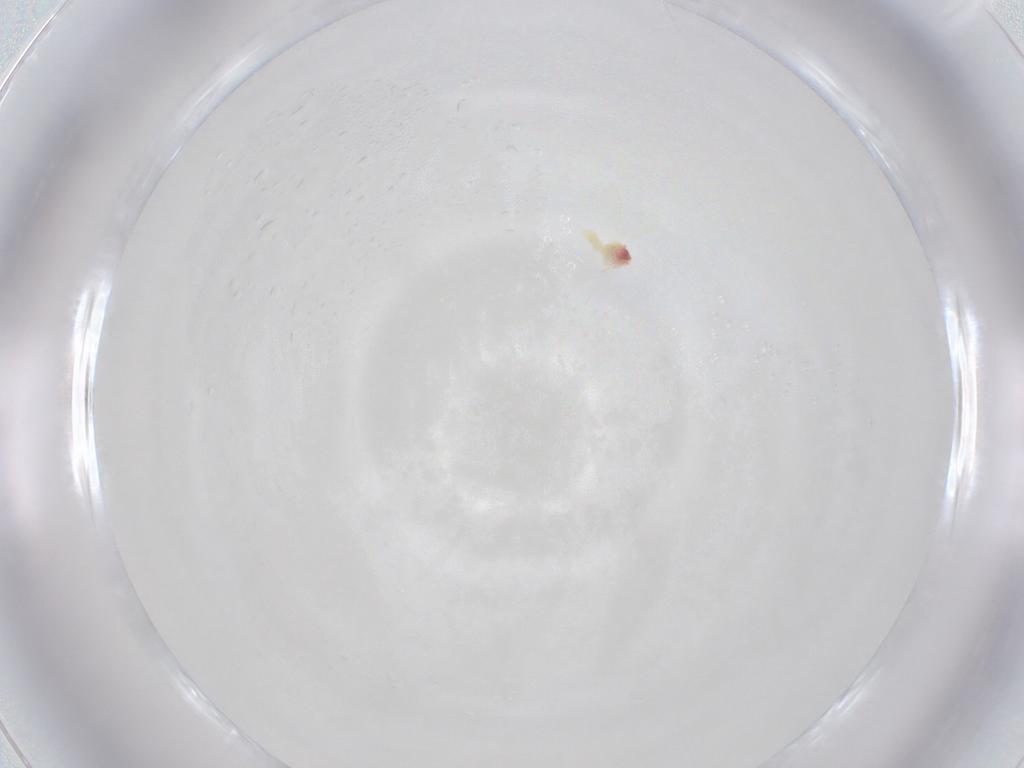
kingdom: Animalia
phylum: Arthropoda
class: Insecta
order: Hemiptera
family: Aleyrodidae
